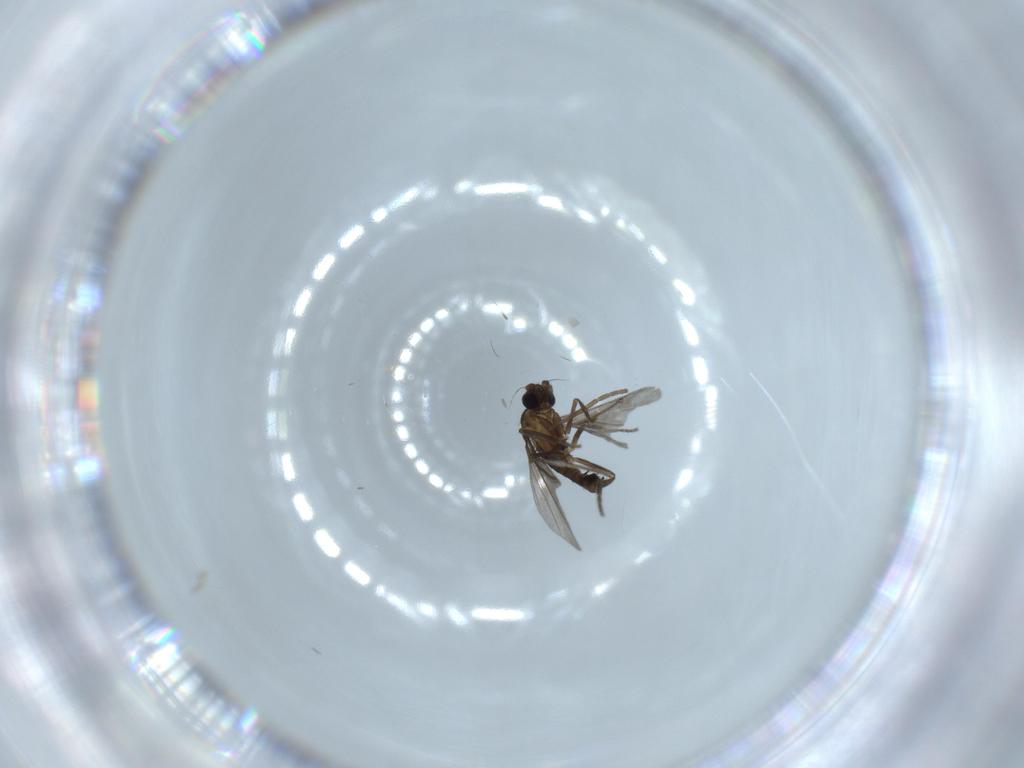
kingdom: Animalia
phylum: Arthropoda
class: Insecta
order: Diptera
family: Phoridae
